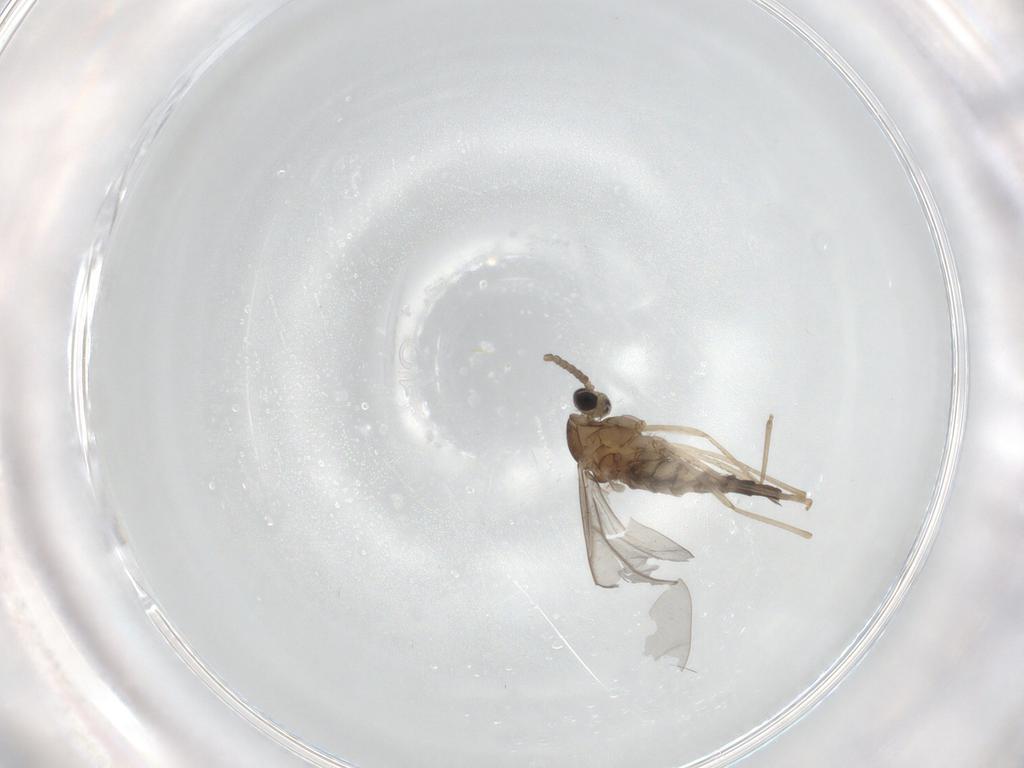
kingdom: Animalia
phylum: Arthropoda
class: Insecta
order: Diptera
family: Cecidomyiidae
